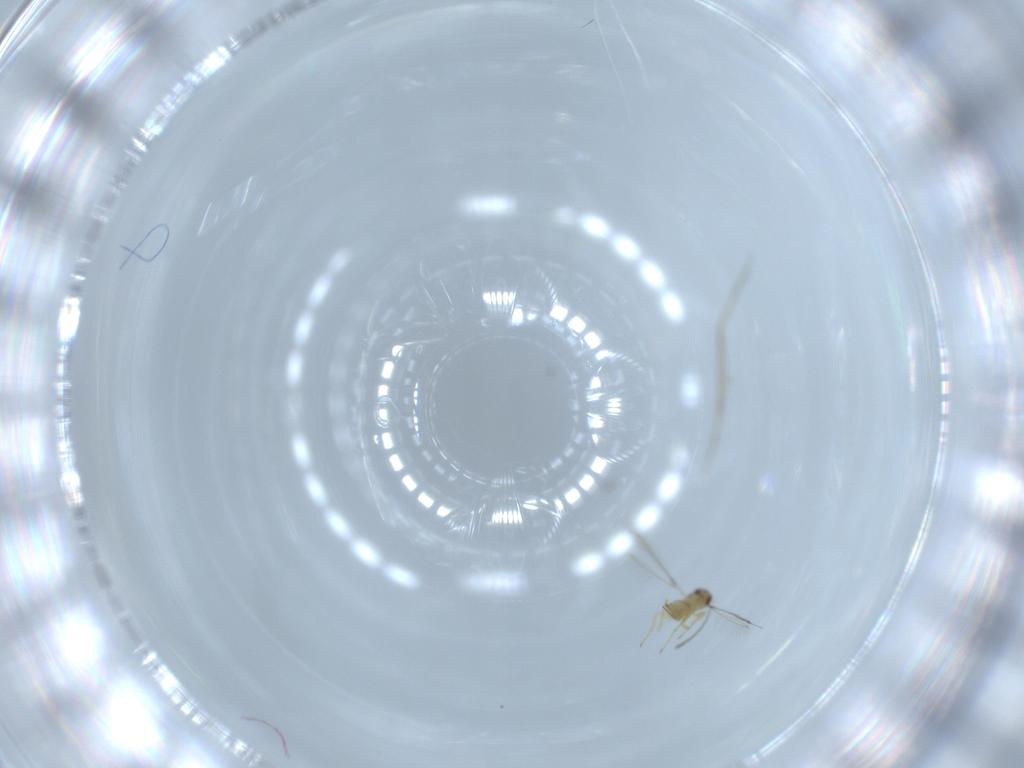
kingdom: Animalia
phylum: Arthropoda
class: Insecta
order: Hymenoptera
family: Mymaridae
